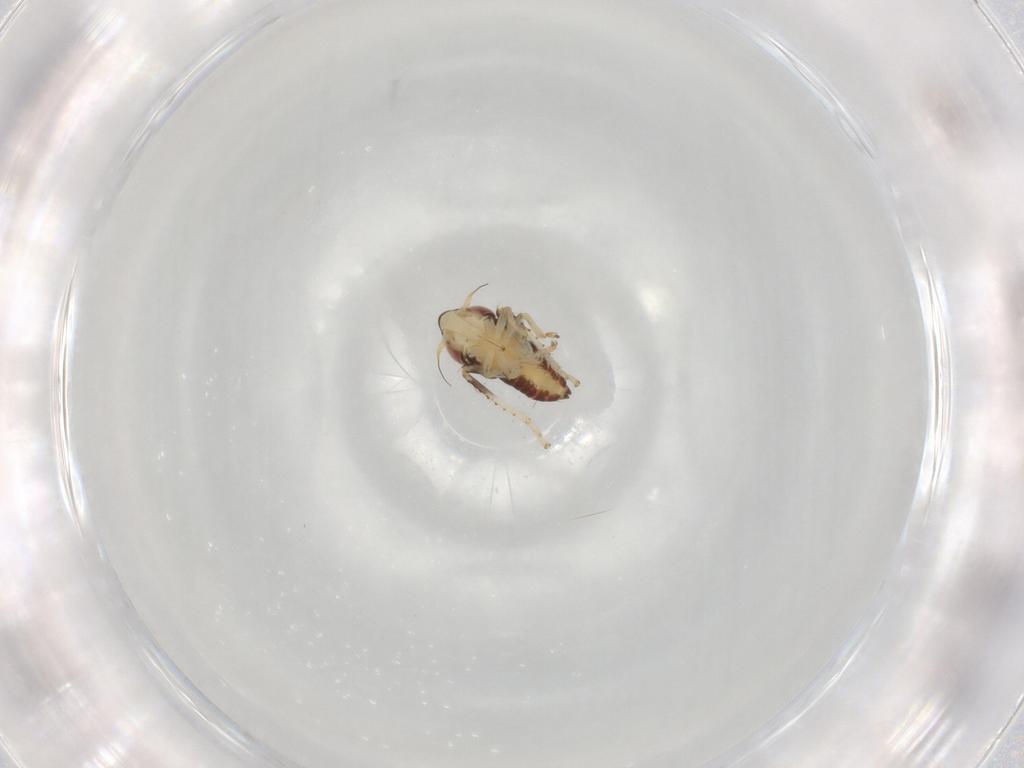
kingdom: Animalia
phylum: Arthropoda
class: Insecta
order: Hemiptera
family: Cicadellidae
